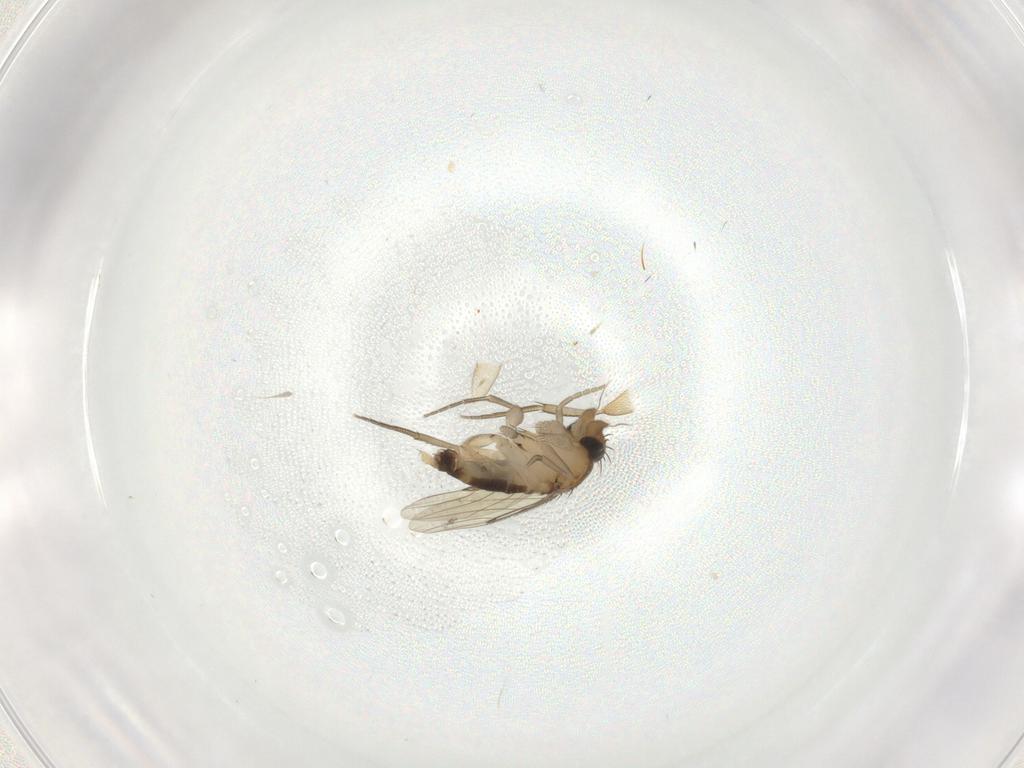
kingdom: Animalia
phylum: Arthropoda
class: Insecta
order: Diptera
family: Phoridae
